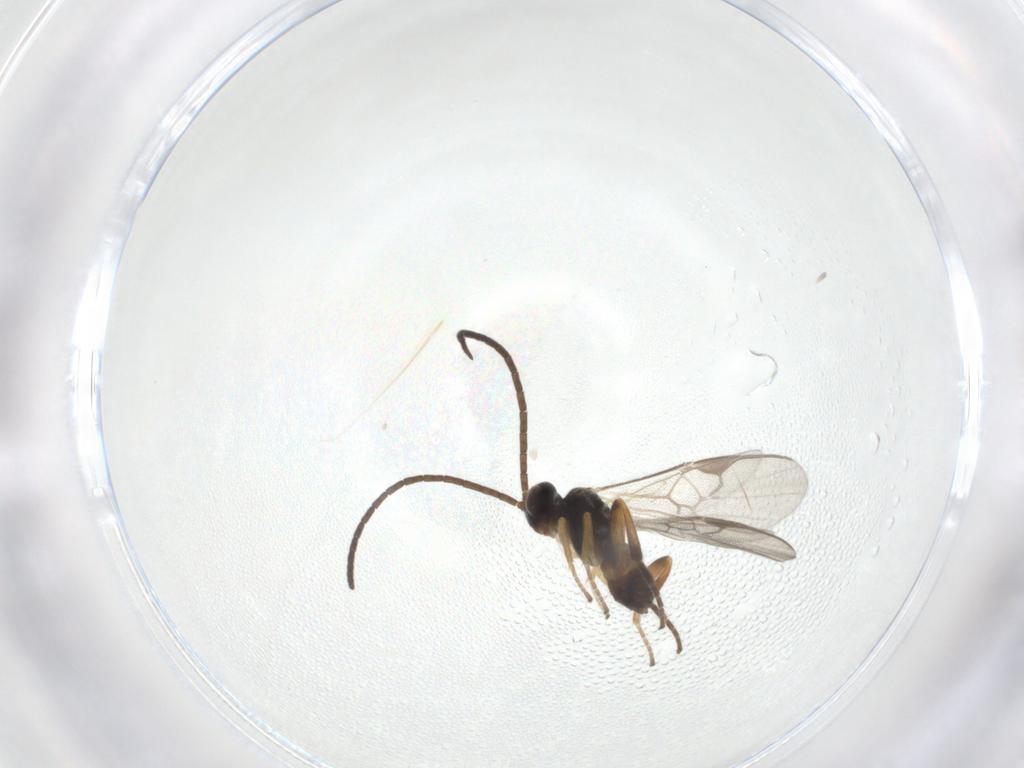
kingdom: Animalia
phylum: Arthropoda
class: Insecta
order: Hymenoptera
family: Braconidae
